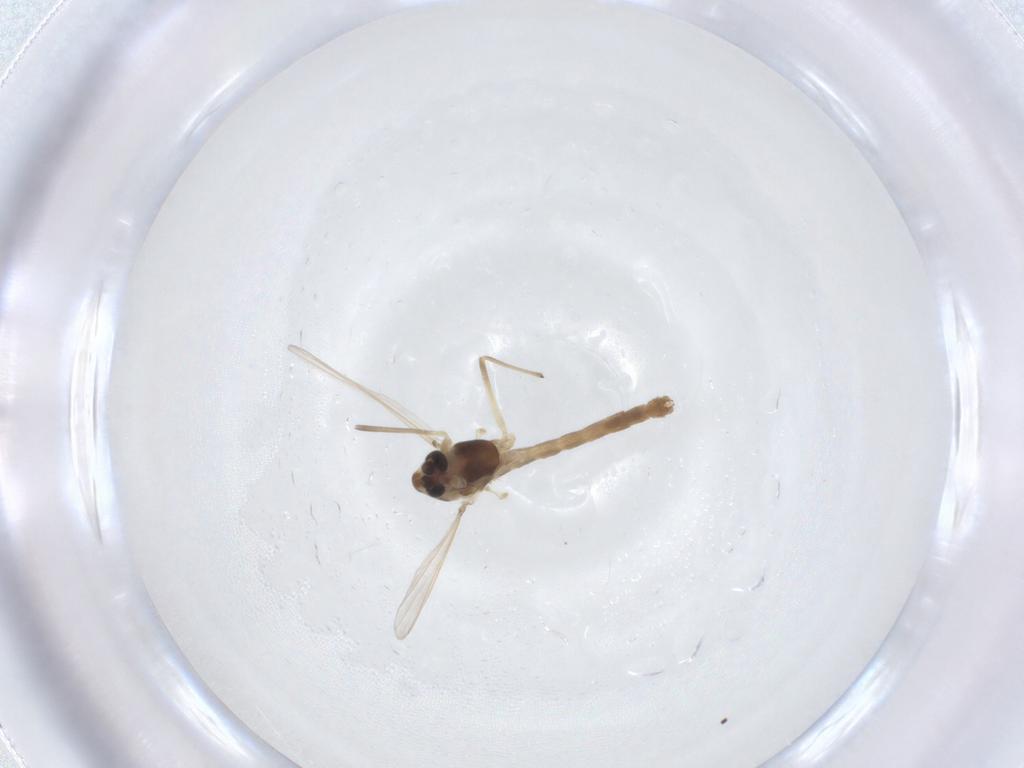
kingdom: Animalia
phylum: Arthropoda
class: Insecta
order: Diptera
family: Chironomidae
